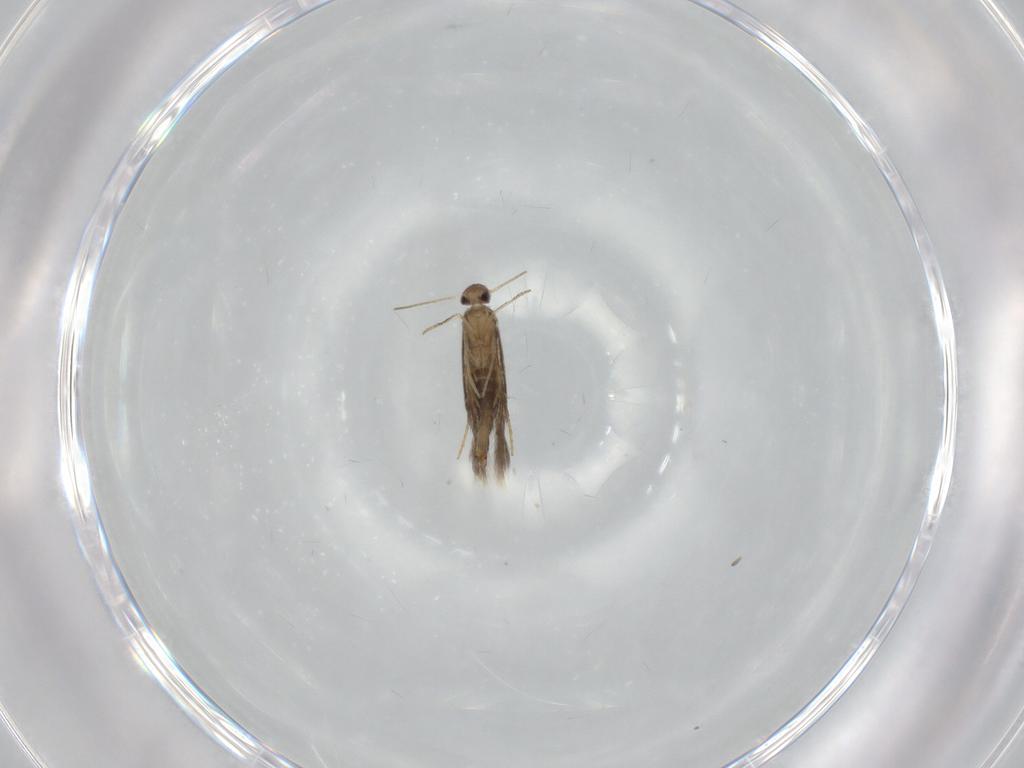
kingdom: Animalia
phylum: Arthropoda
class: Insecta
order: Lepidoptera
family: Heliozelidae
